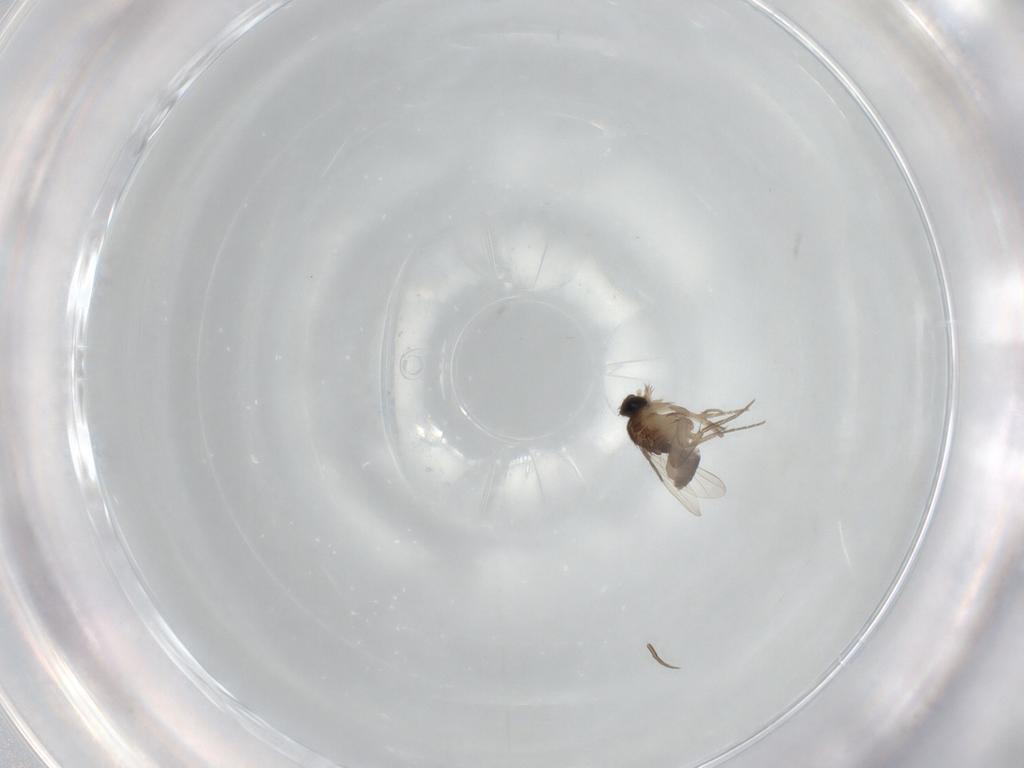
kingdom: Animalia
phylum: Arthropoda
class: Insecta
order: Diptera
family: Phoridae
